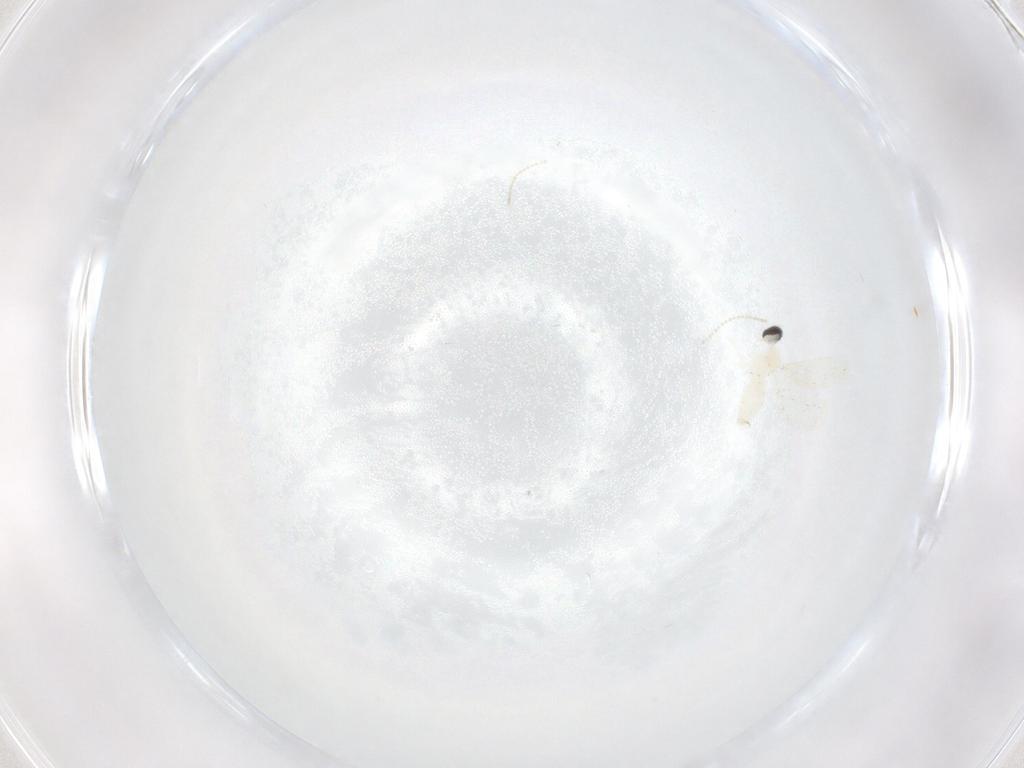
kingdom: Animalia
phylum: Arthropoda
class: Insecta
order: Diptera
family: Cecidomyiidae
